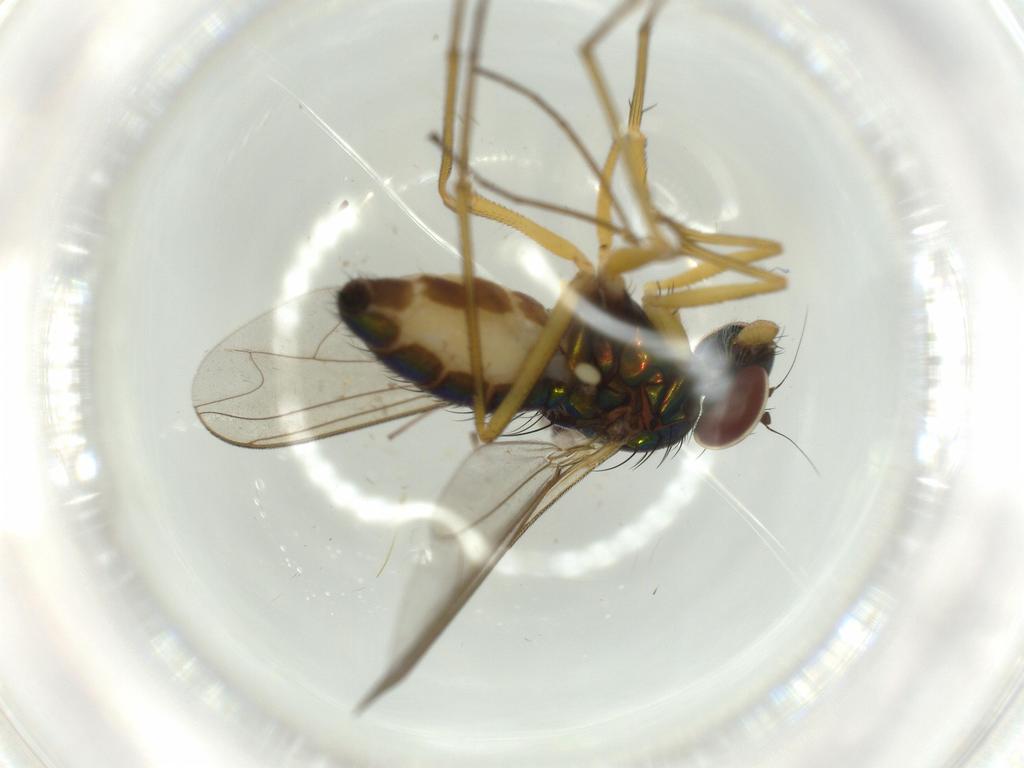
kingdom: Animalia
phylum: Arthropoda
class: Insecta
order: Diptera
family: Dolichopodidae
